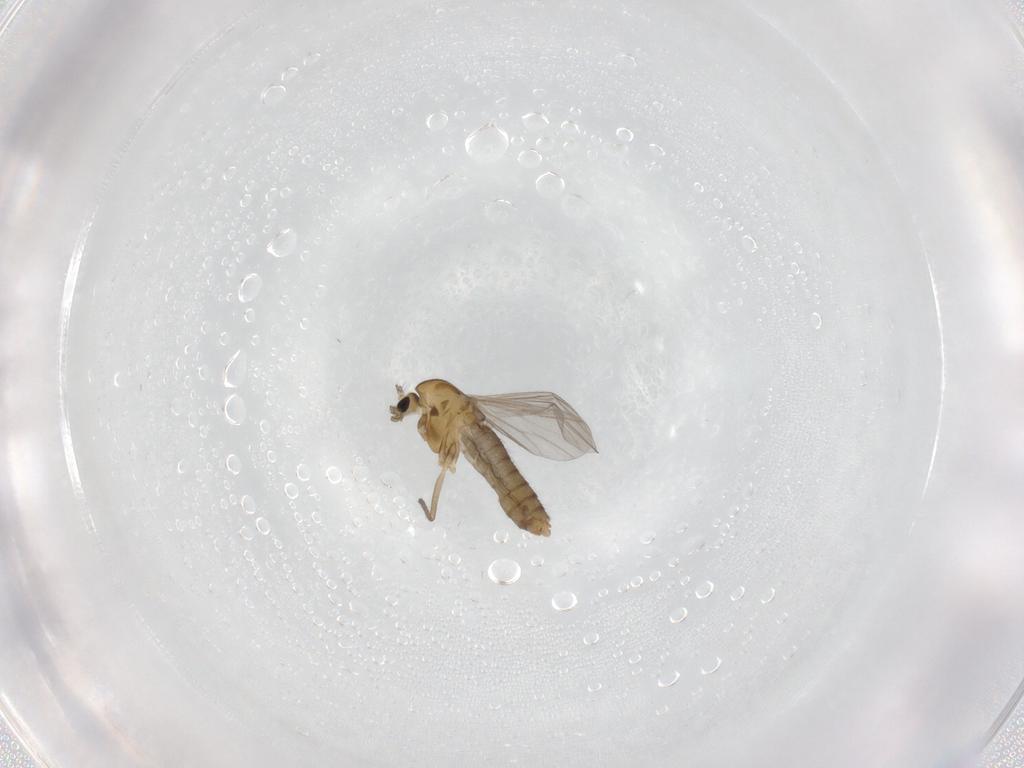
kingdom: Animalia
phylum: Arthropoda
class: Insecta
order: Diptera
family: Chironomidae
